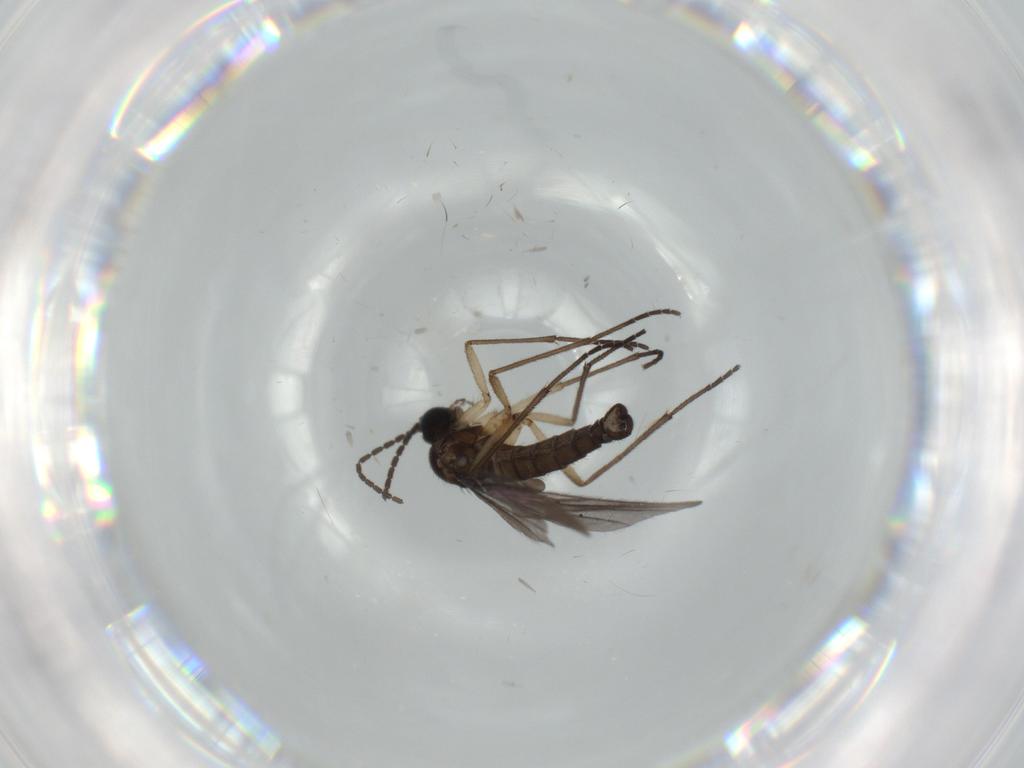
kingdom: Animalia
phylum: Arthropoda
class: Insecta
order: Diptera
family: Sciaridae
